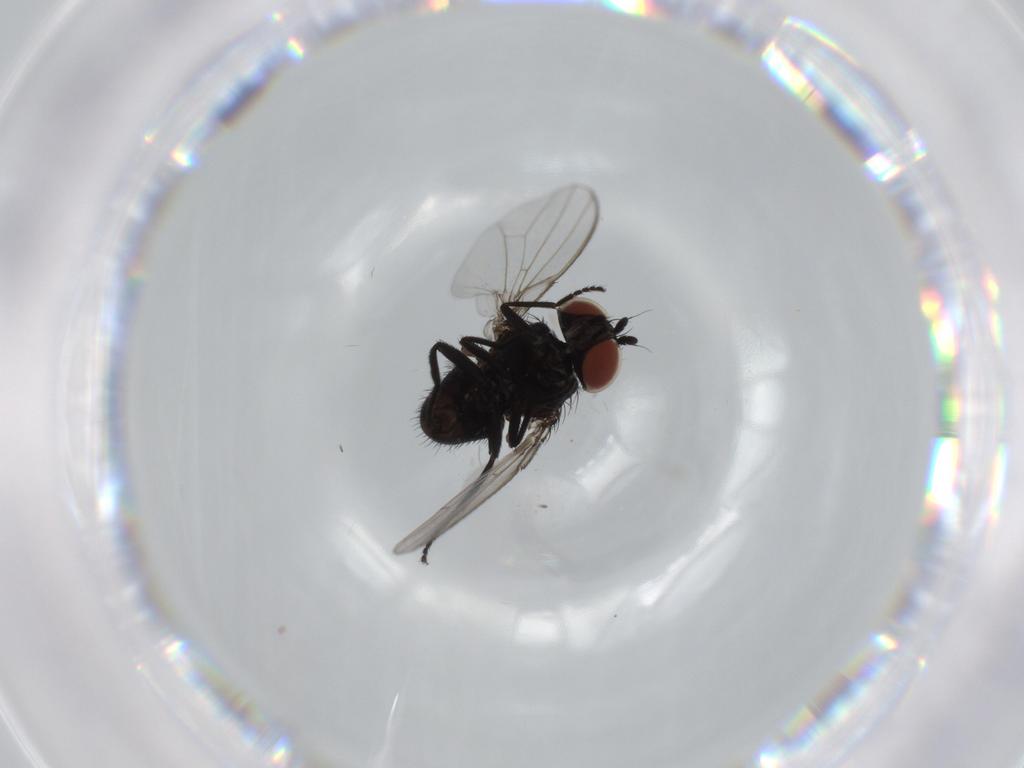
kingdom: Animalia
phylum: Arthropoda
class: Insecta
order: Diptera
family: Milichiidae
